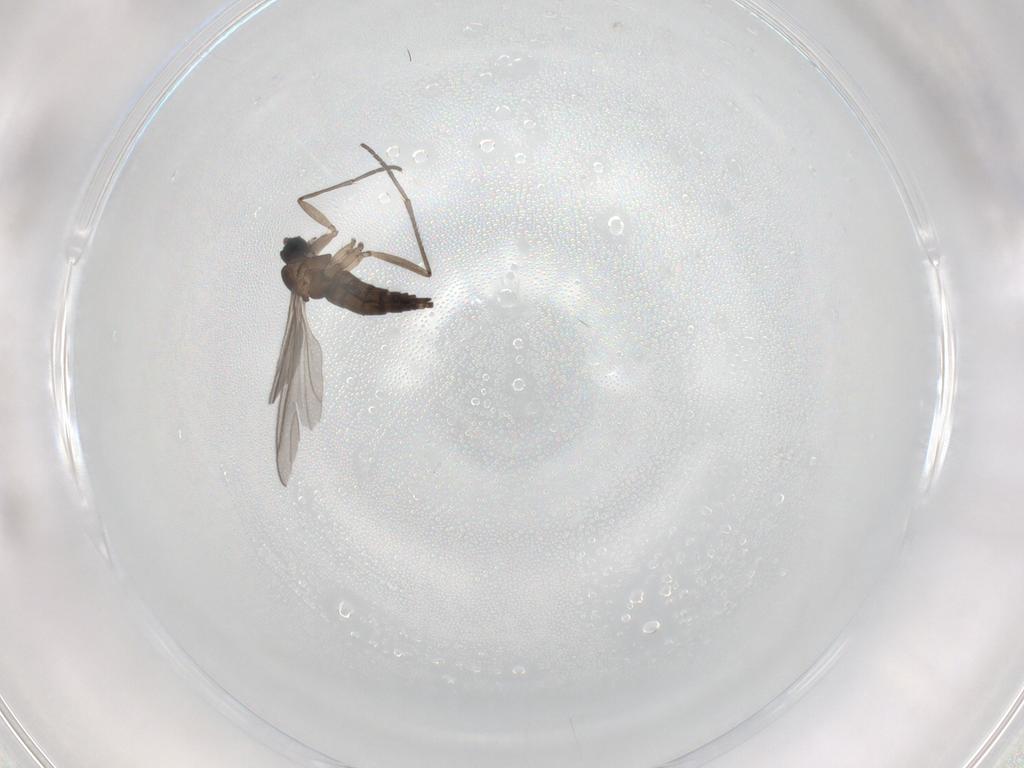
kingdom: Animalia
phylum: Arthropoda
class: Insecta
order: Diptera
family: Sciaridae
